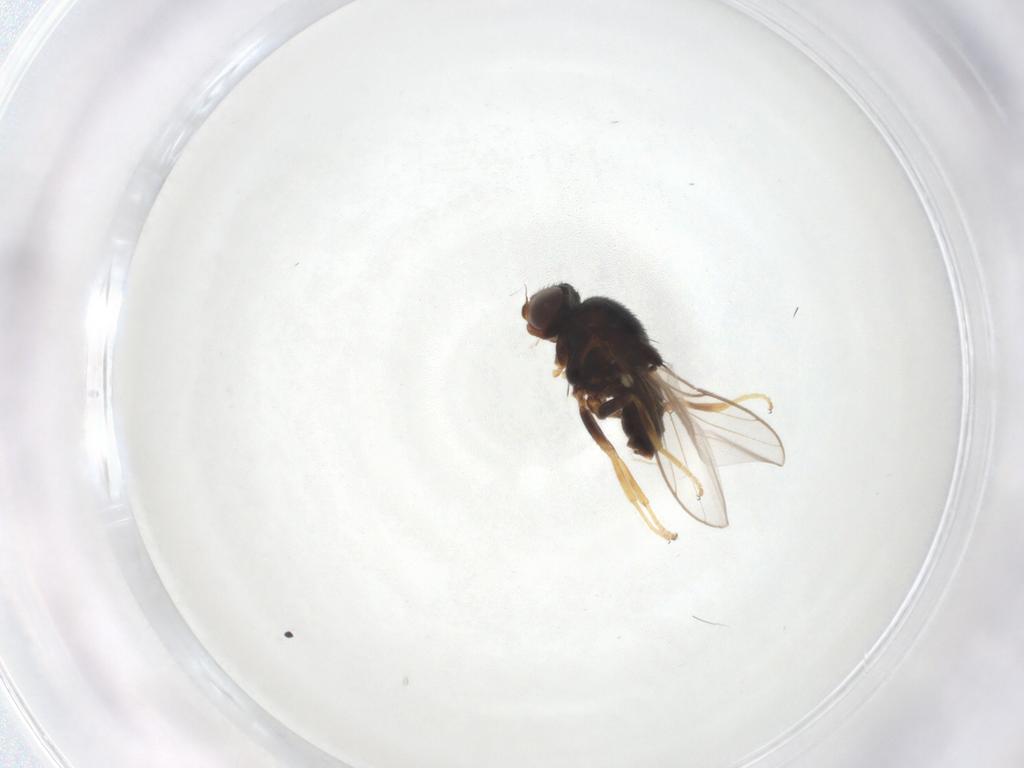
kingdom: Animalia
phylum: Arthropoda
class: Insecta
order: Diptera
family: Chloropidae
